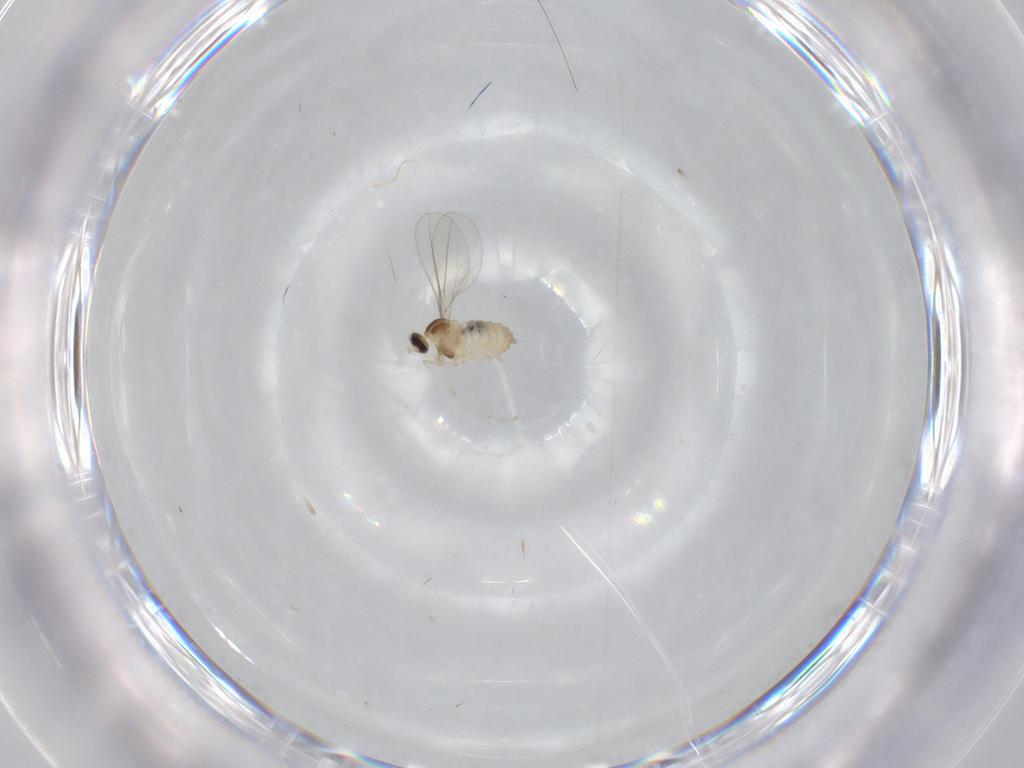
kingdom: Animalia
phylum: Arthropoda
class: Insecta
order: Diptera
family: Cecidomyiidae
